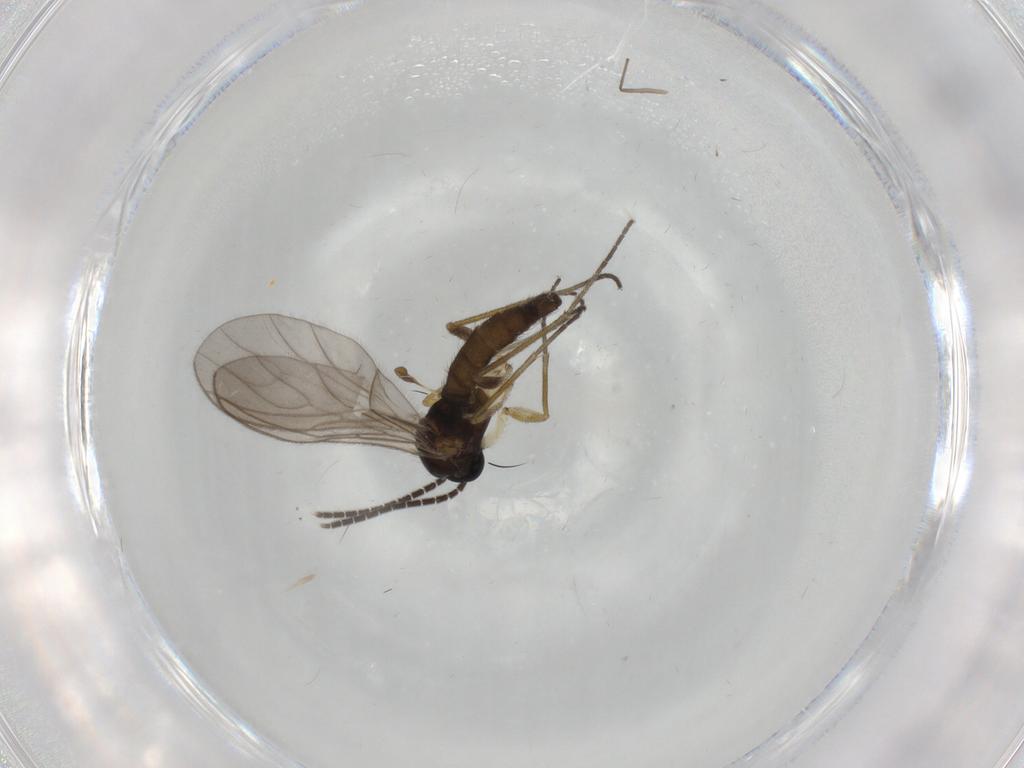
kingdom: Animalia
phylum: Arthropoda
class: Insecta
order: Diptera
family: Sciaridae
